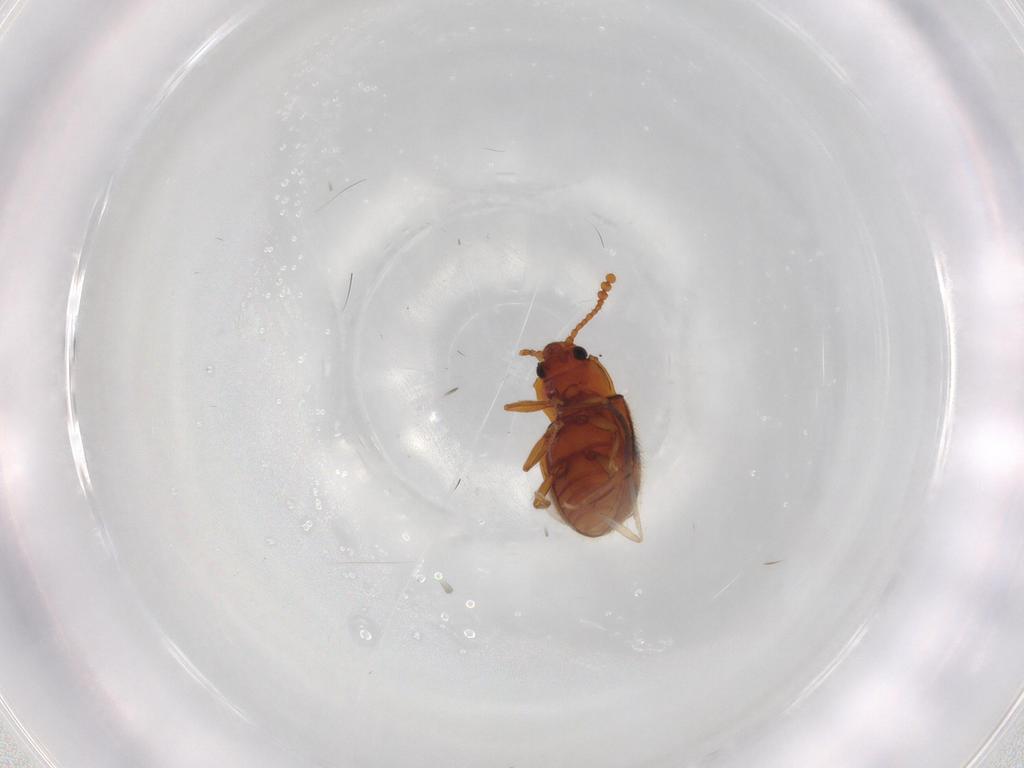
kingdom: Animalia
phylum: Arthropoda
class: Insecta
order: Coleoptera
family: Erotylidae
